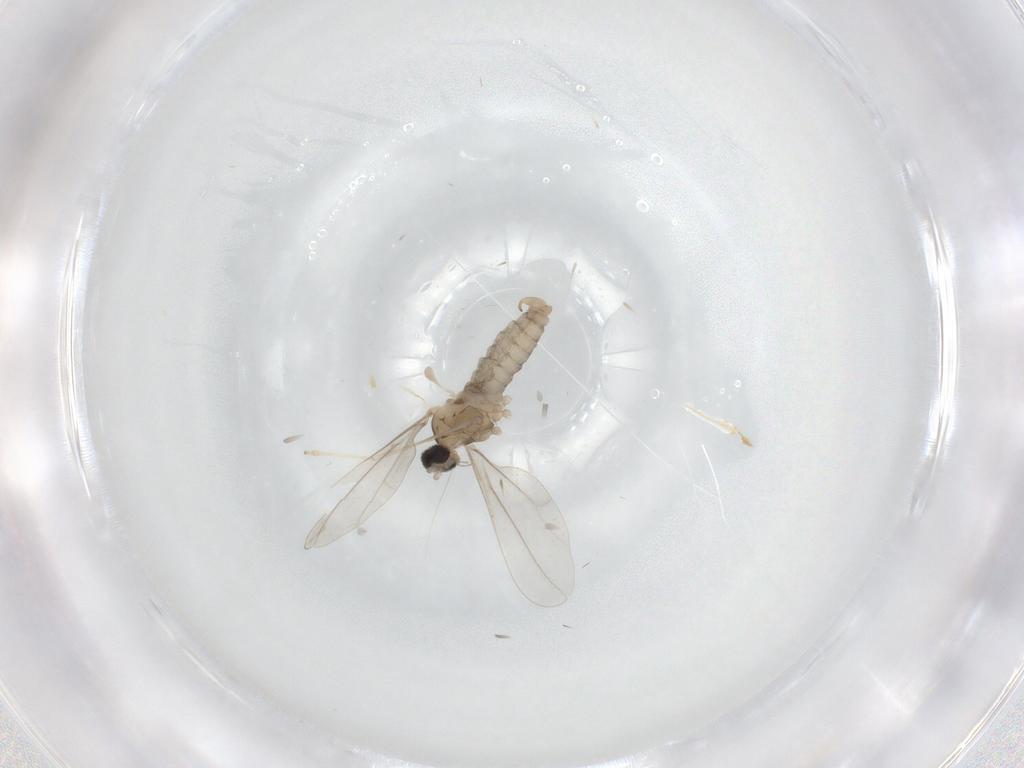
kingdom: Animalia
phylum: Arthropoda
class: Insecta
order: Diptera
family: Cecidomyiidae
